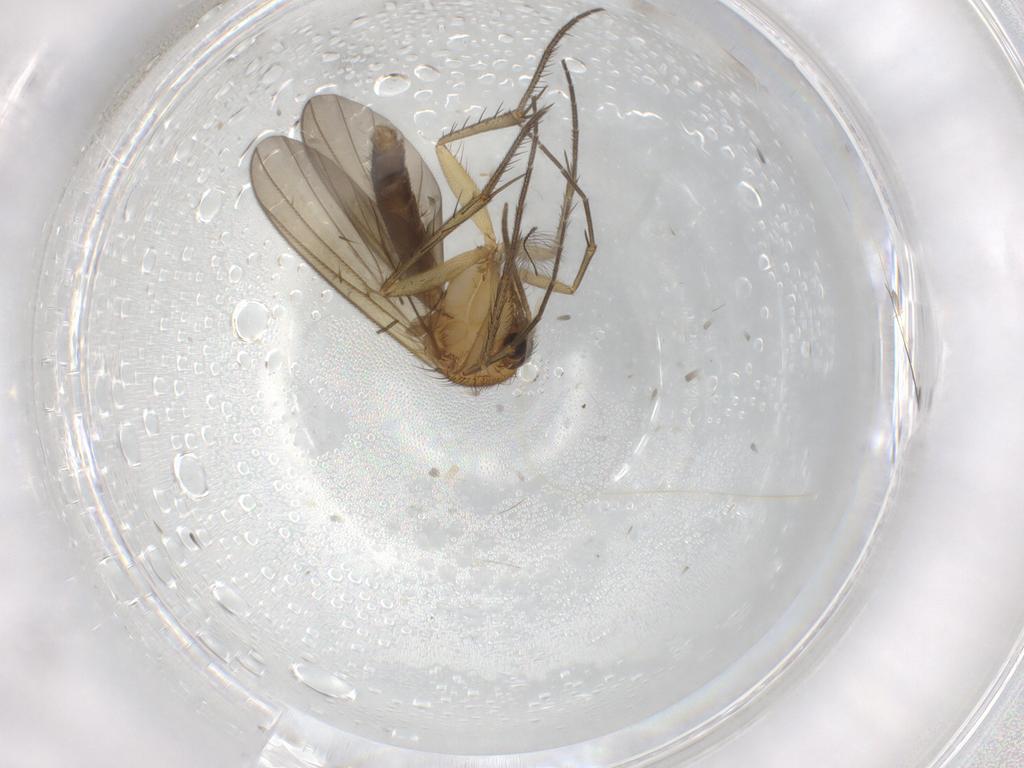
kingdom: Animalia
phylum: Arthropoda
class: Insecta
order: Diptera
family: Mycetophilidae
